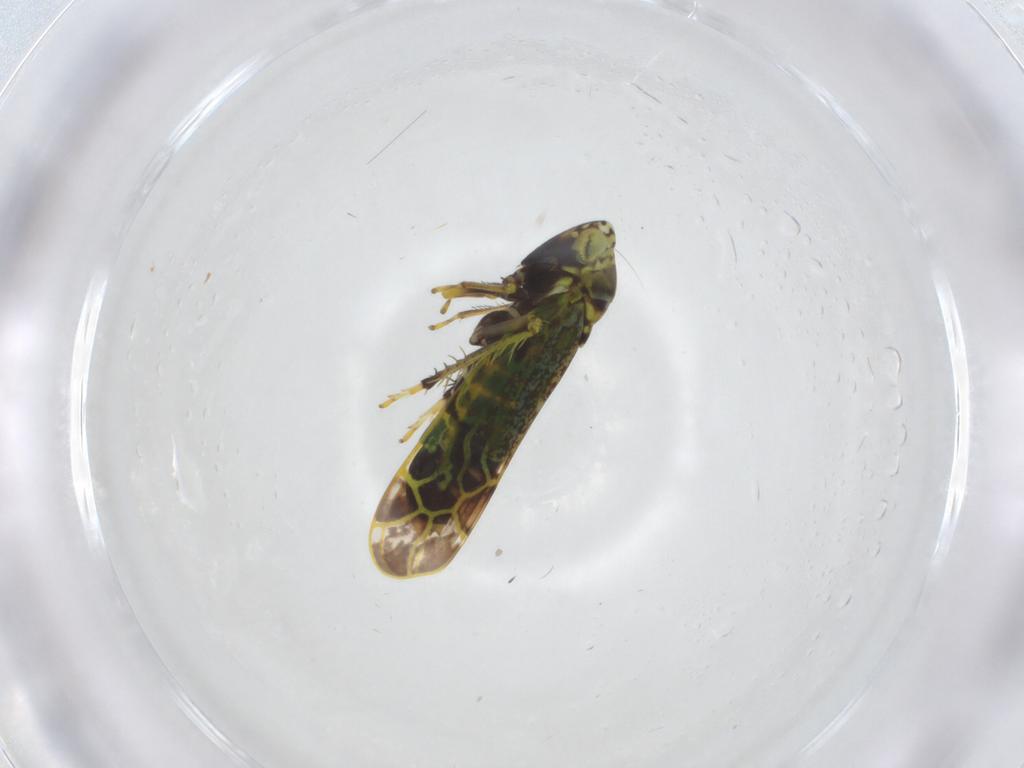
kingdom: Animalia
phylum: Arthropoda
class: Insecta
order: Hemiptera
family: Cicadellidae
